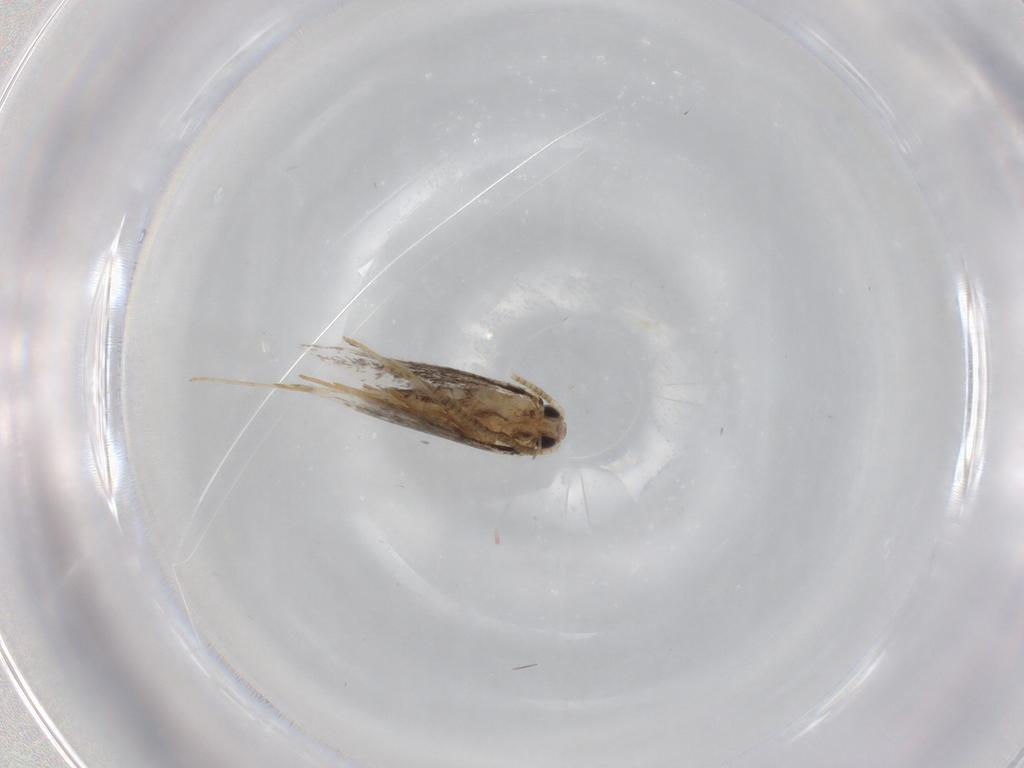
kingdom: Animalia
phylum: Arthropoda
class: Insecta
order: Lepidoptera
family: Tineidae
